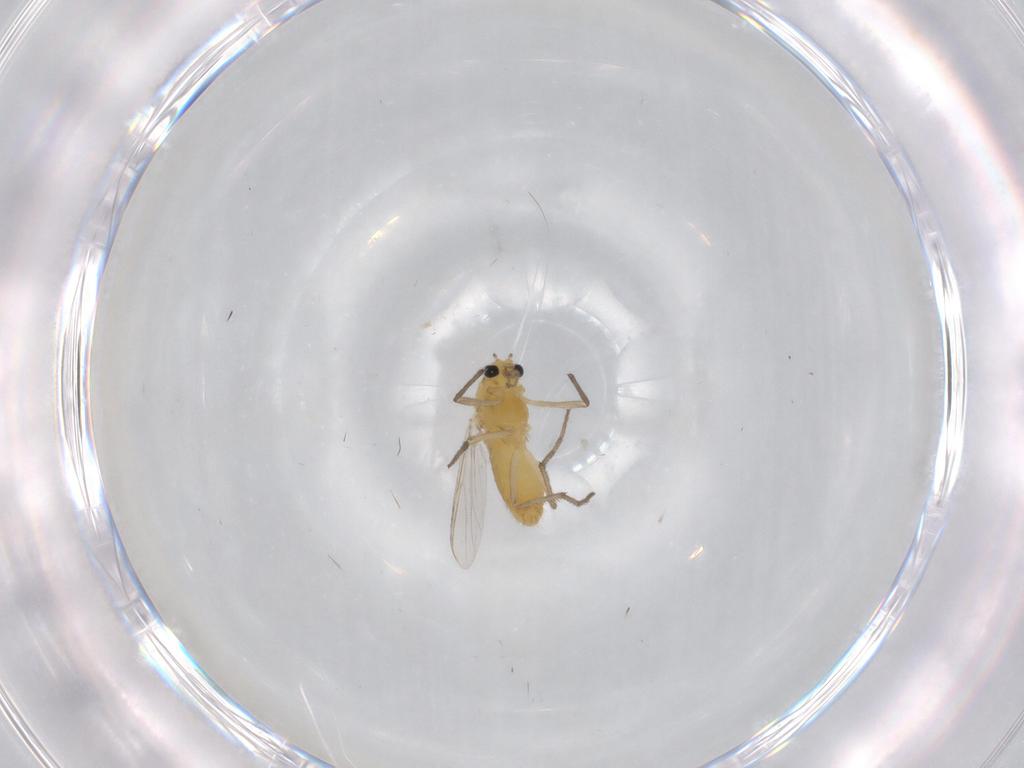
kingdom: Animalia
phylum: Arthropoda
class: Insecta
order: Diptera
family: Chironomidae
